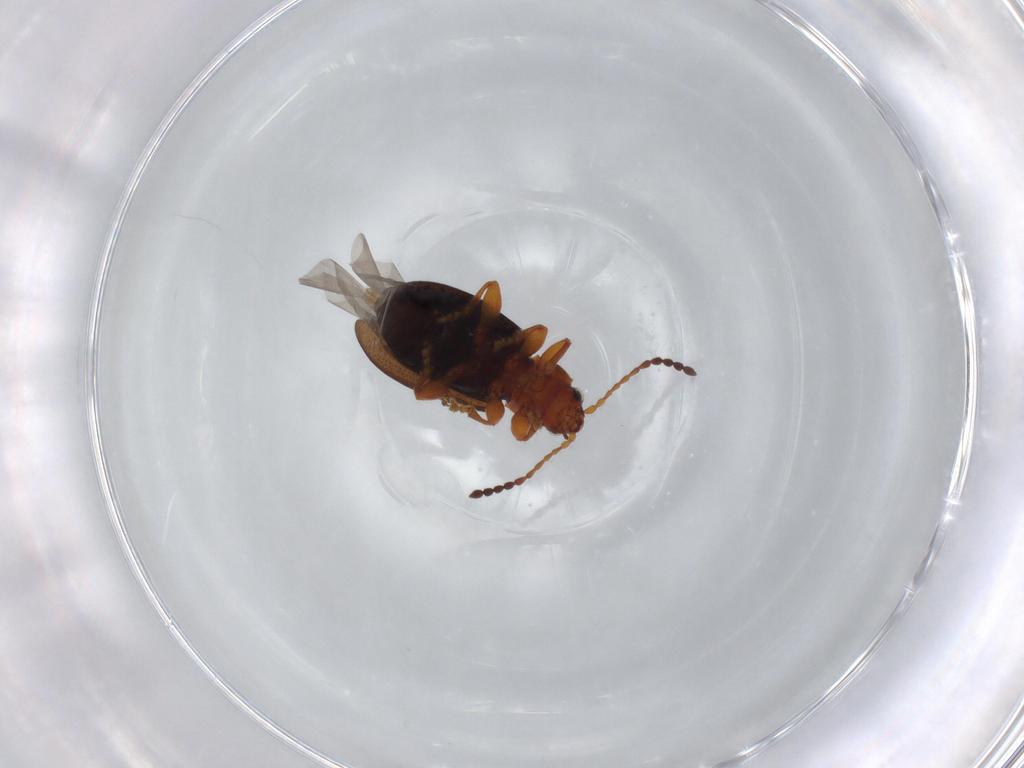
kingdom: Animalia
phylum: Arthropoda
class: Insecta
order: Coleoptera
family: Chrysomelidae
